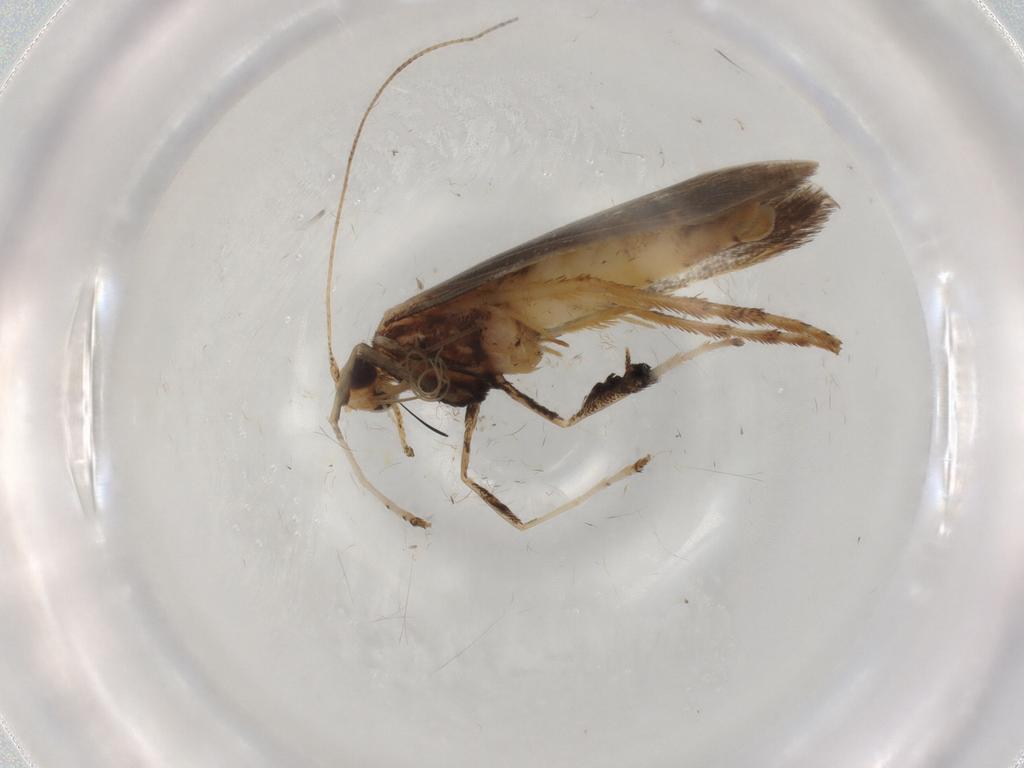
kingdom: Animalia
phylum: Arthropoda
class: Insecta
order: Lepidoptera
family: Gracillariidae
